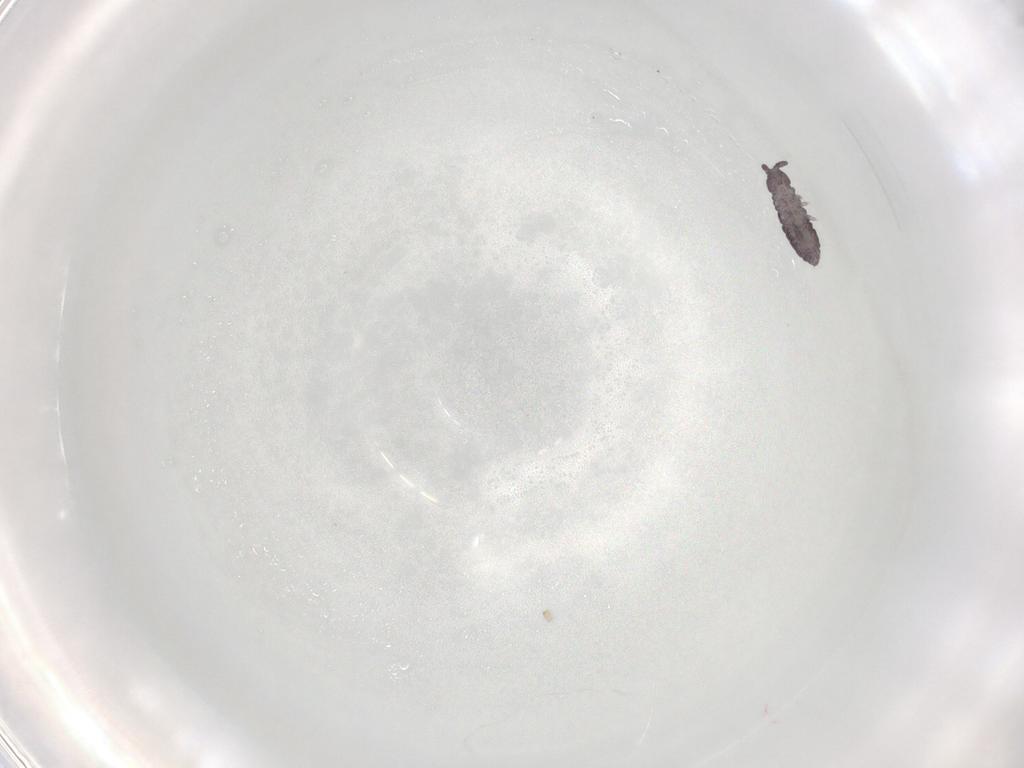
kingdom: Animalia
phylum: Arthropoda
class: Collembola
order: Poduromorpha
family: Hypogastruridae
